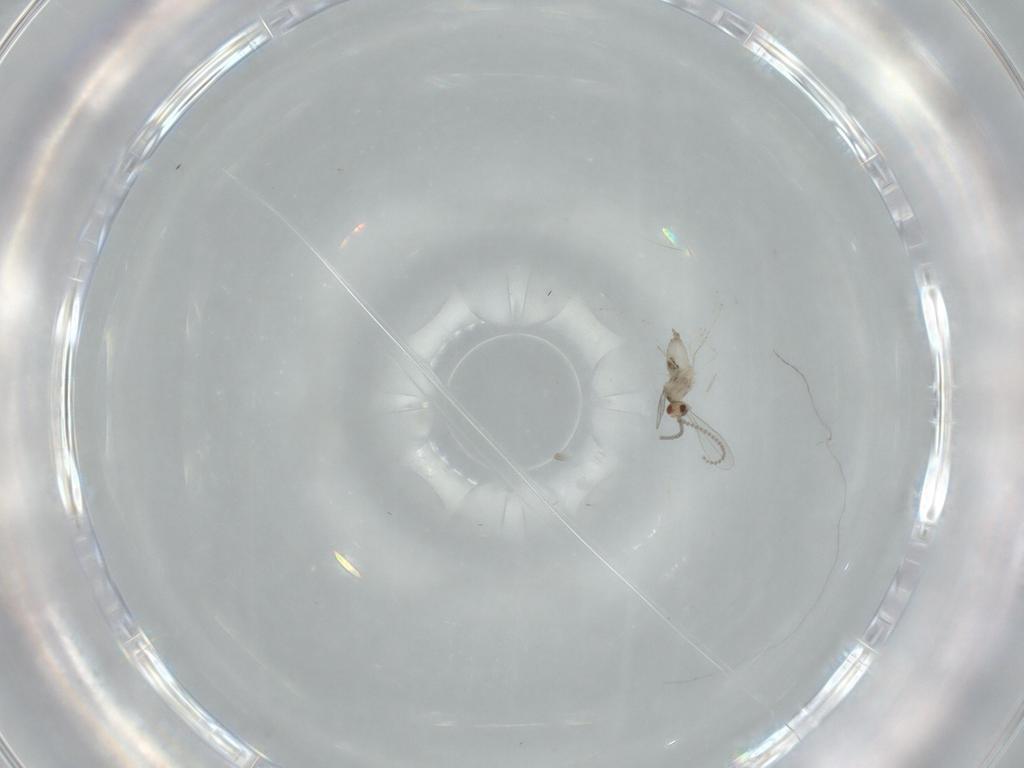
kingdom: Animalia
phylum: Arthropoda
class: Insecta
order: Diptera
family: Cecidomyiidae
